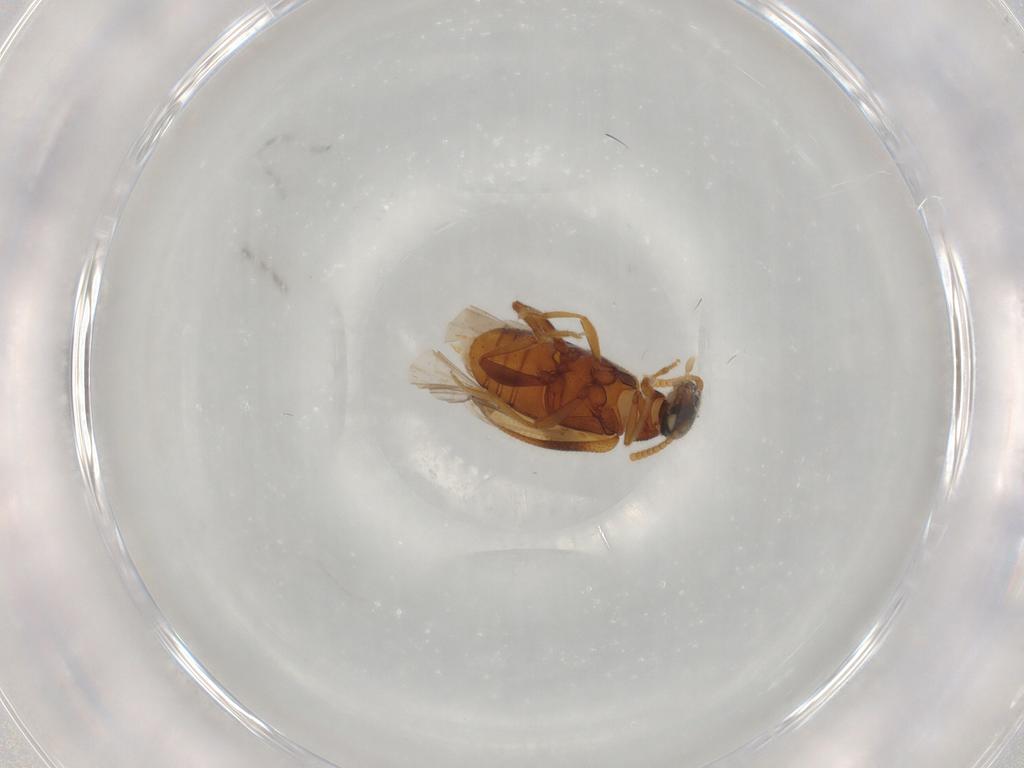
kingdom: Animalia
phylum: Arthropoda
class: Insecta
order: Coleoptera
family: Aderidae
